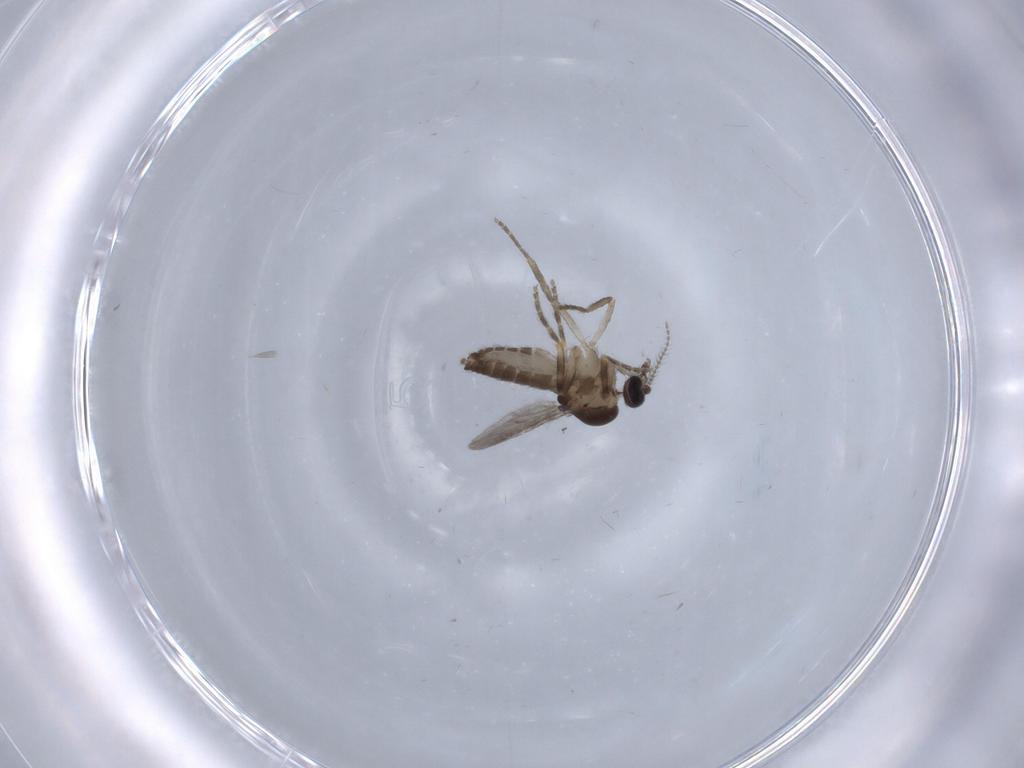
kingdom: Animalia
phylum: Arthropoda
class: Insecta
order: Diptera
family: Ceratopogonidae
